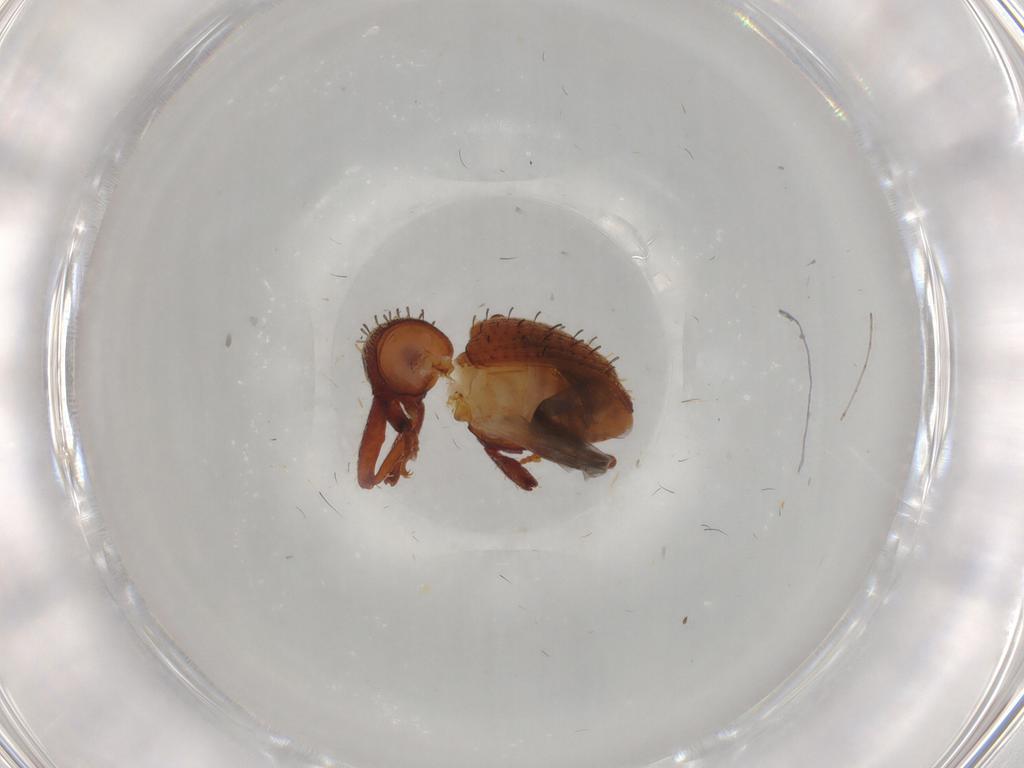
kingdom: Animalia
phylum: Arthropoda
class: Insecta
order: Coleoptera
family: Curculionidae
